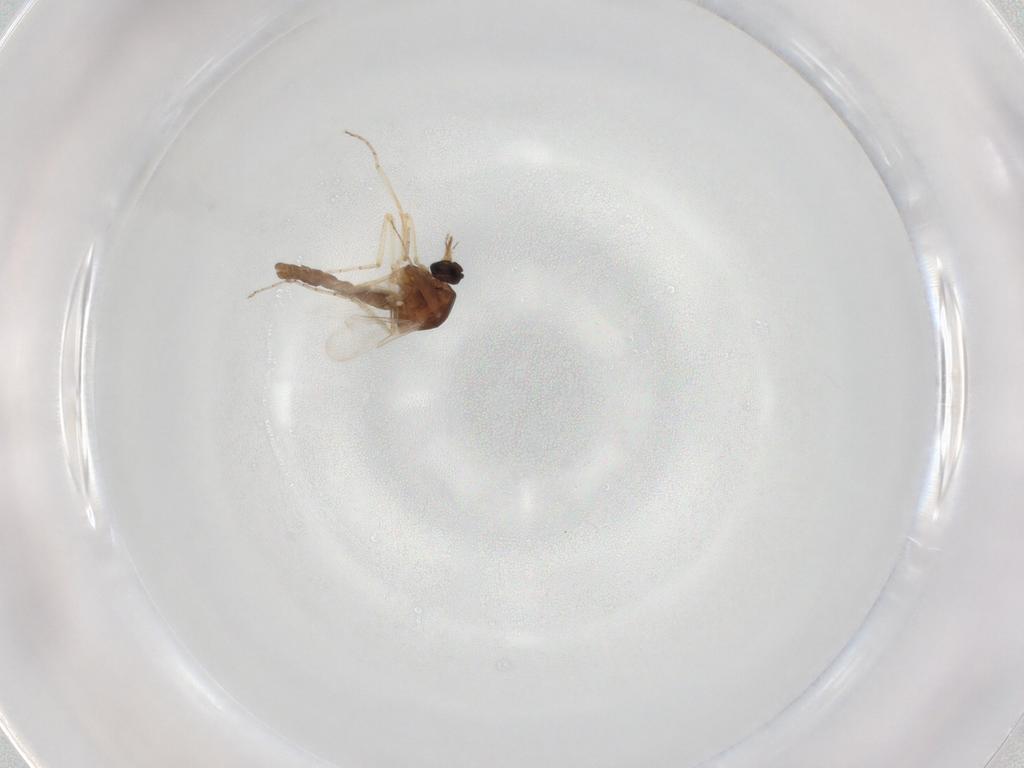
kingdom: Animalia
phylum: Arthropoda
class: Insecta
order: Diptera
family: Ceratopogonidae
